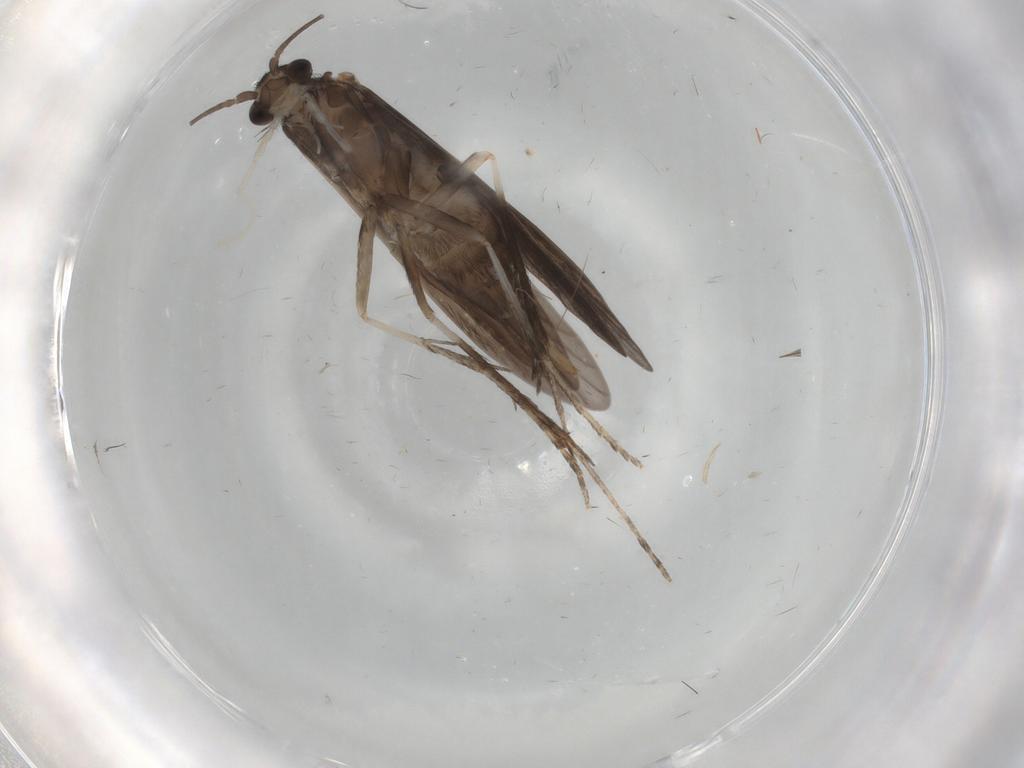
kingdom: Animalia
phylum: Arthropoda
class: Insecta
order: Trichoptera
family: Xiphocentronidae
